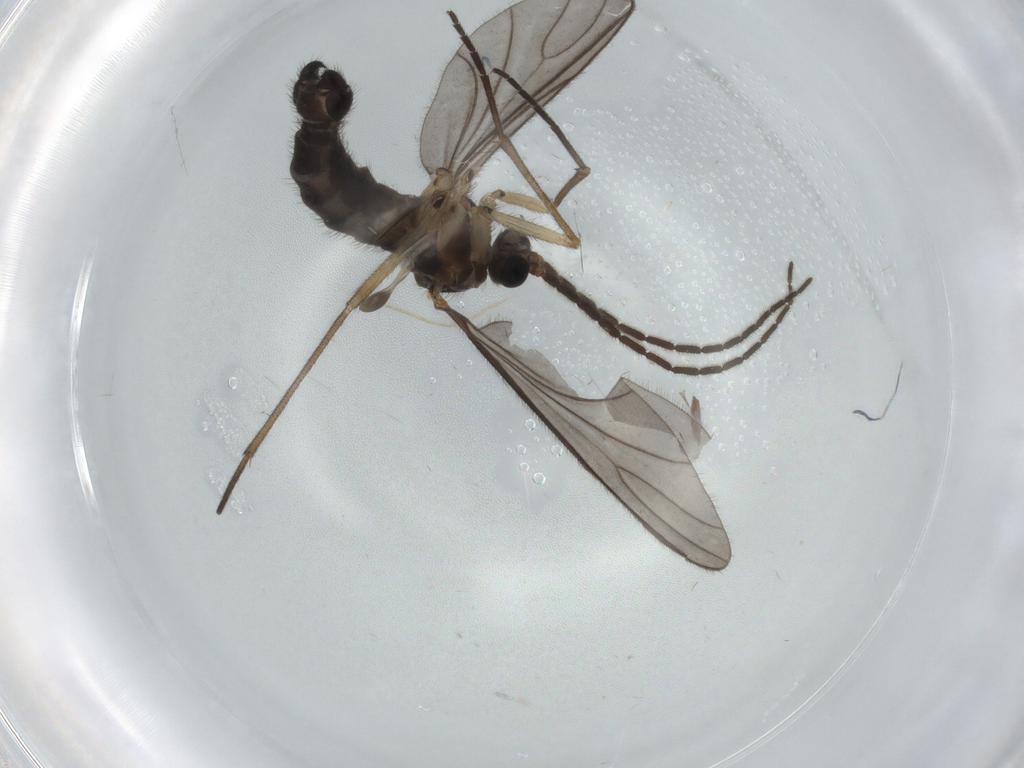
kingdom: Animalia
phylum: Arthropoda
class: Insecta
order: Diptera
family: Sciaridae
